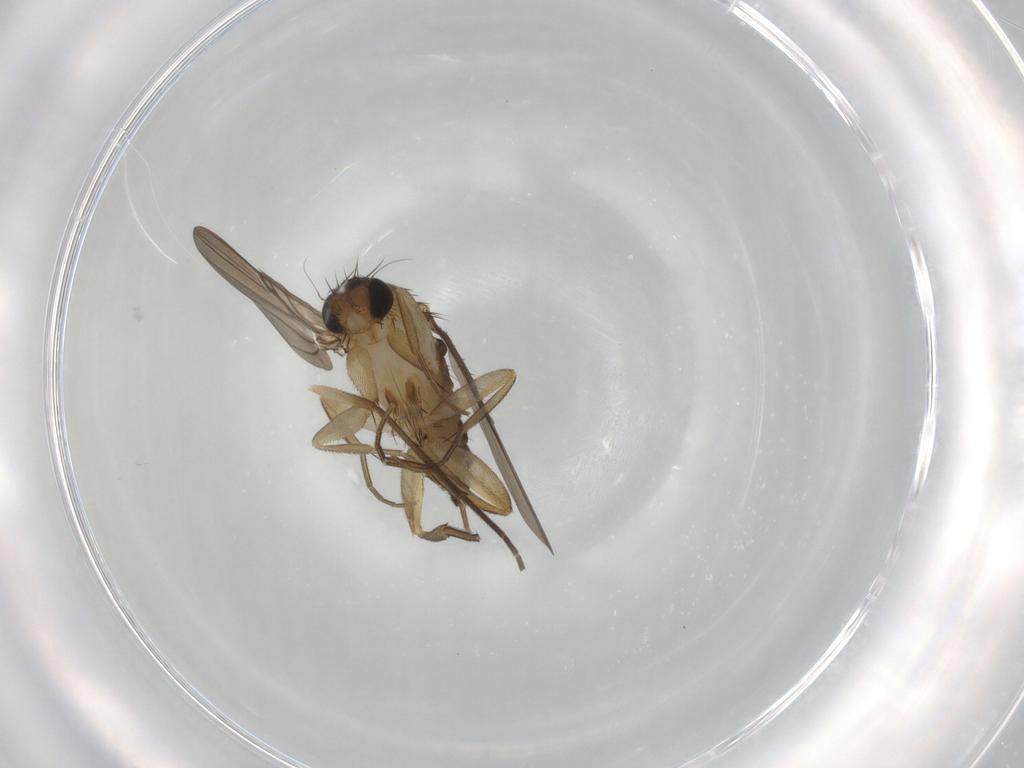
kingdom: Animalia
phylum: Arthropoda
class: Insecta
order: Diptera
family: Phoridae
